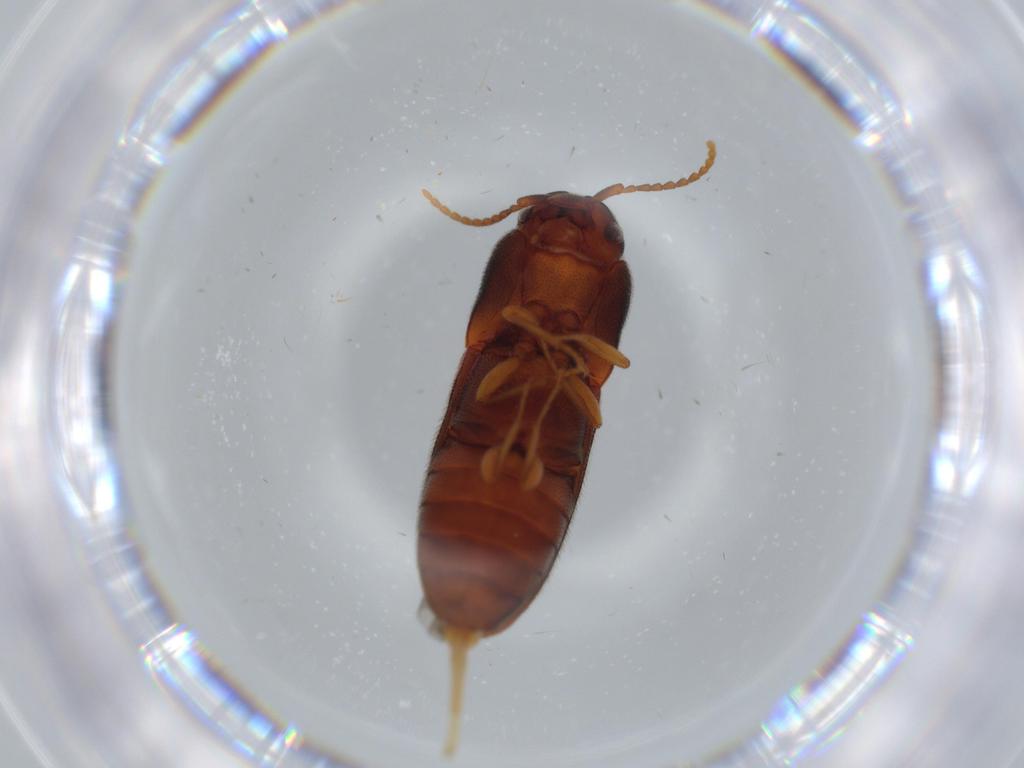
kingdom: Animalia
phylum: Arthropoda
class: Insecta
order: Coleoptera
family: Eucnemidae
